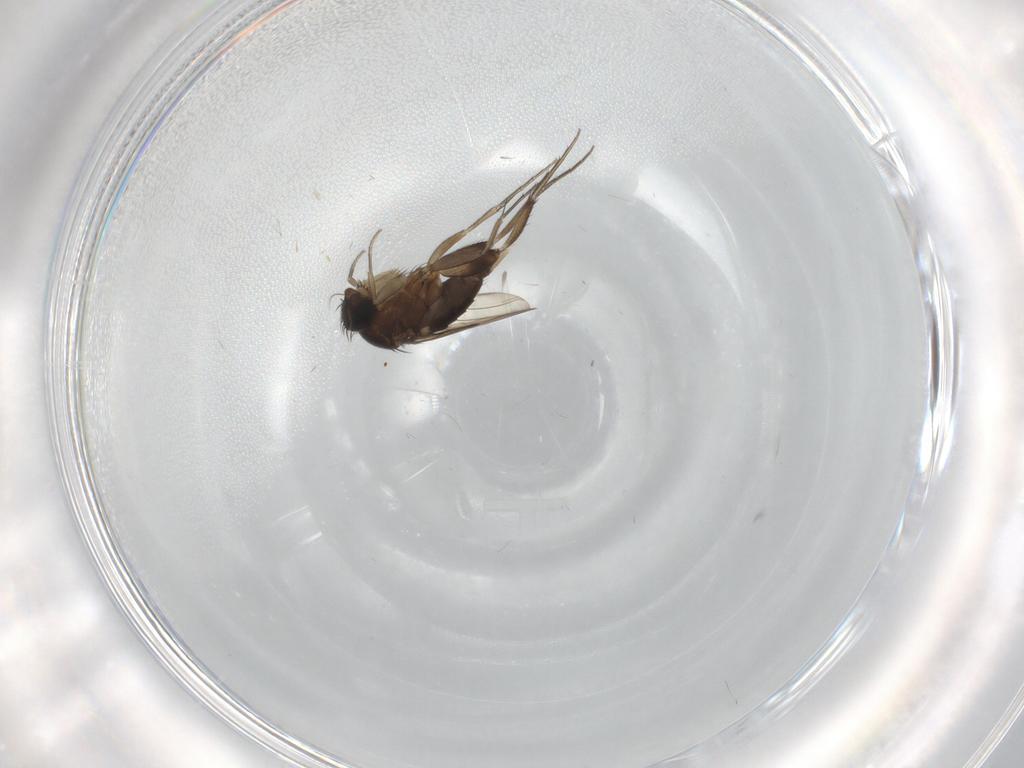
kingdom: Animalia
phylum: Arthropoda
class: Insecta
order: Diptera
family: Phoridae
